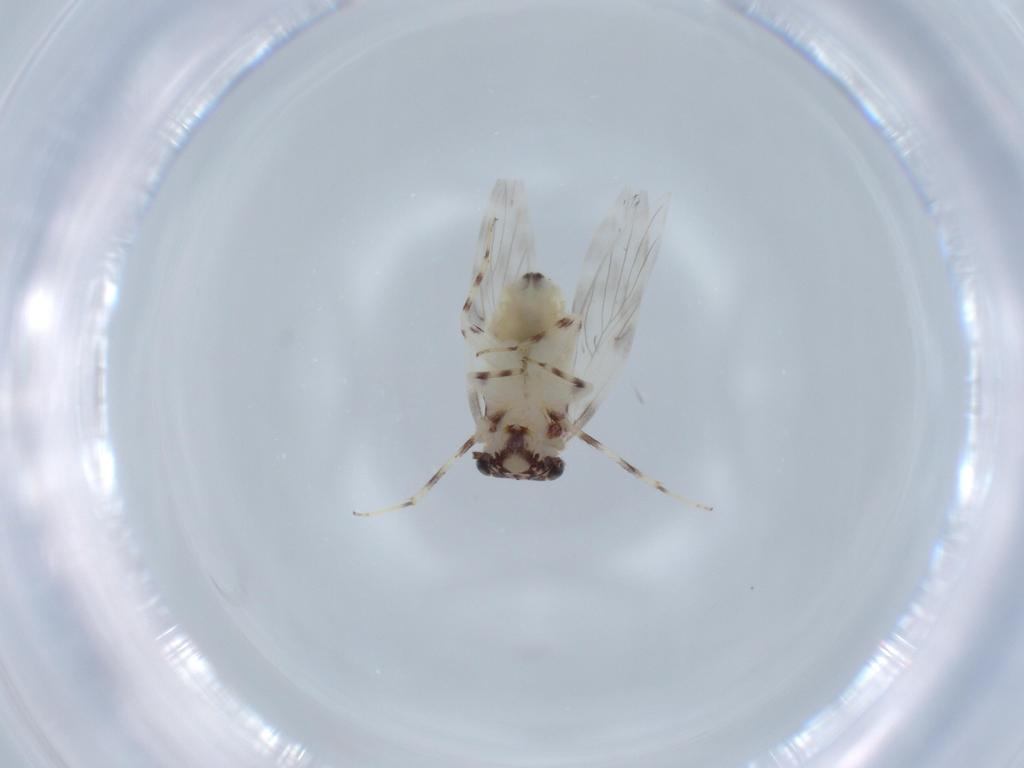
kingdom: Animalia
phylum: Arthropoda
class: Insecta
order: Psocodea
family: Lepidopsocidae
